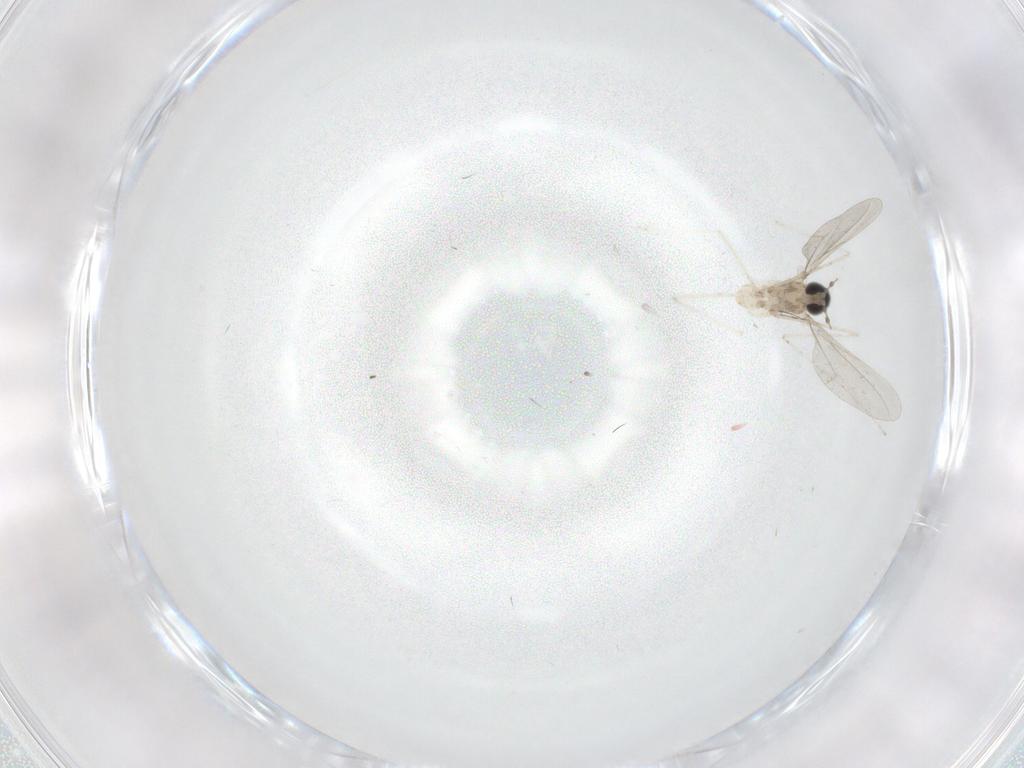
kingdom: Animalia
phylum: Arthropoda
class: Insecta
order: Diptera
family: Cecidomyiidae
